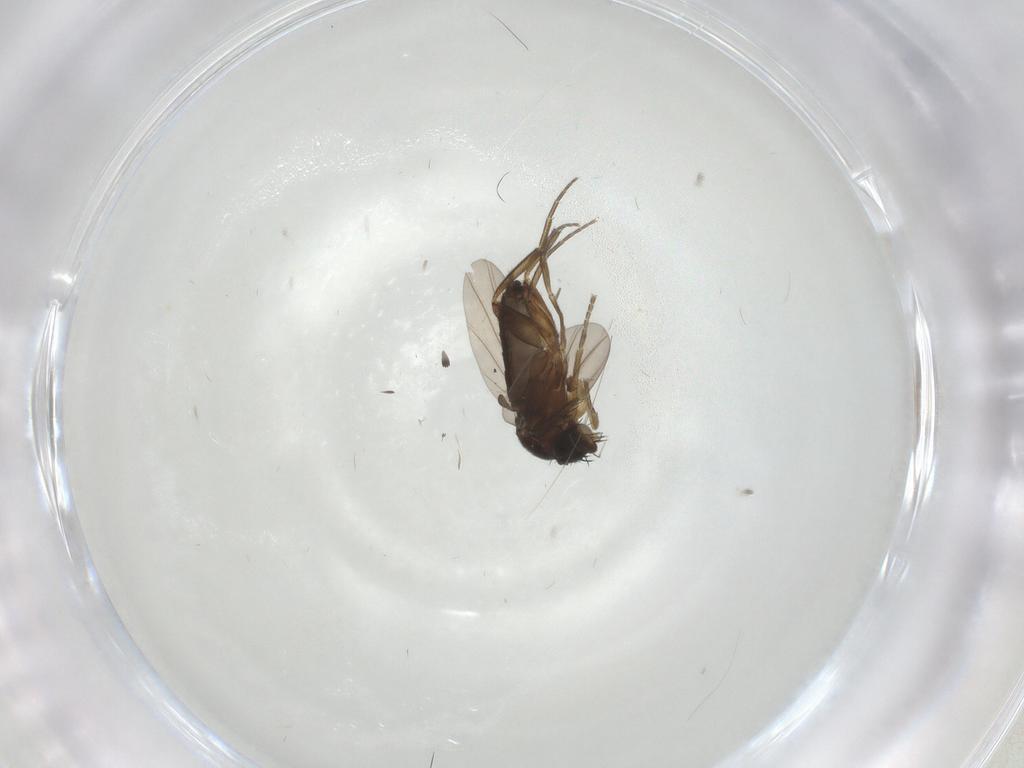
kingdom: Animalia
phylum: Arthropoda
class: Insecta
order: Diptera
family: Phoridae
